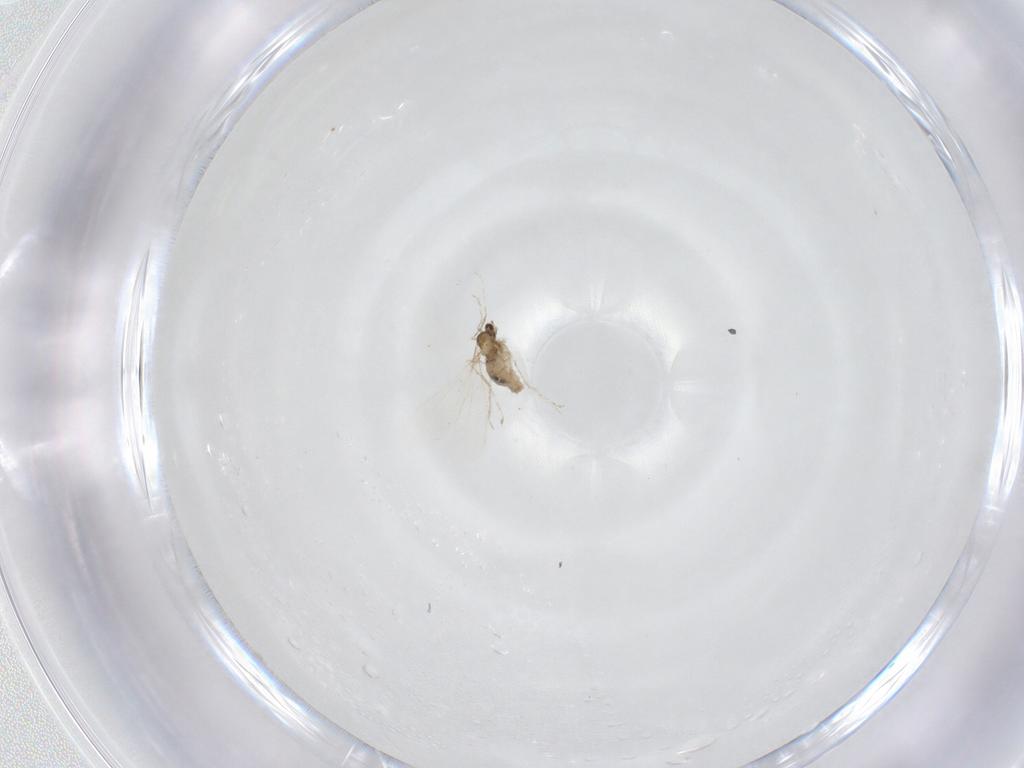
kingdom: Animalia
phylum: Arthropoda
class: Insecta
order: Diptera
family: Cecidomyiidae
